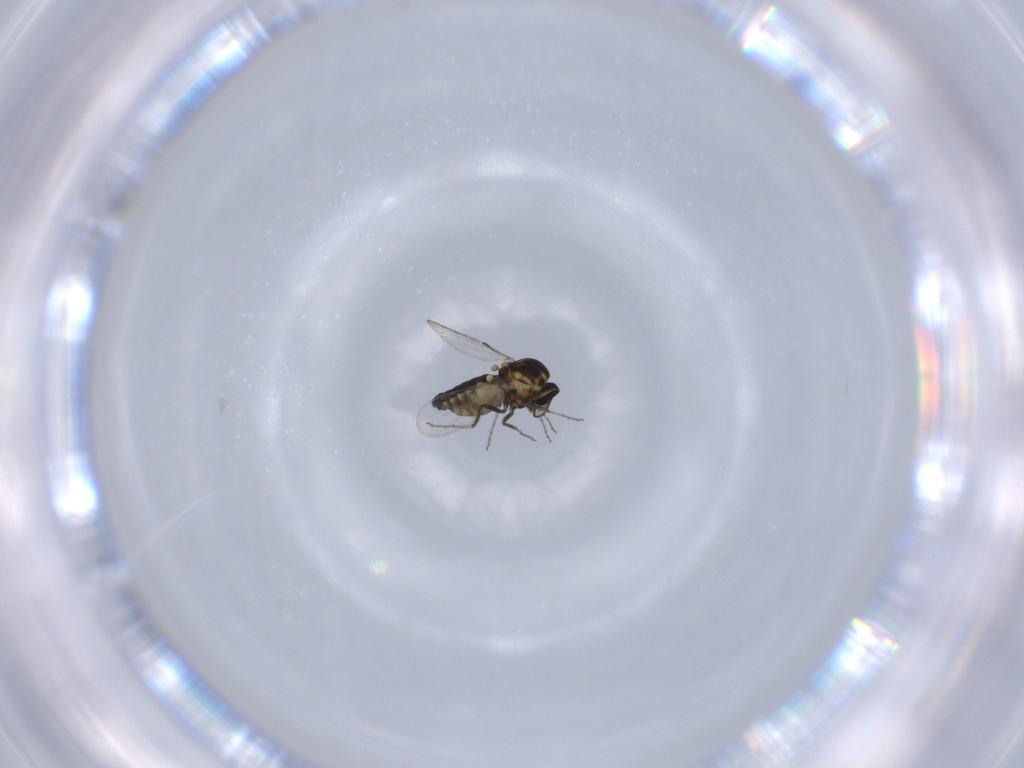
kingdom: Animalia
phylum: Arthropoda
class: Insecta
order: Diptera
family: Ceratopogonidae
